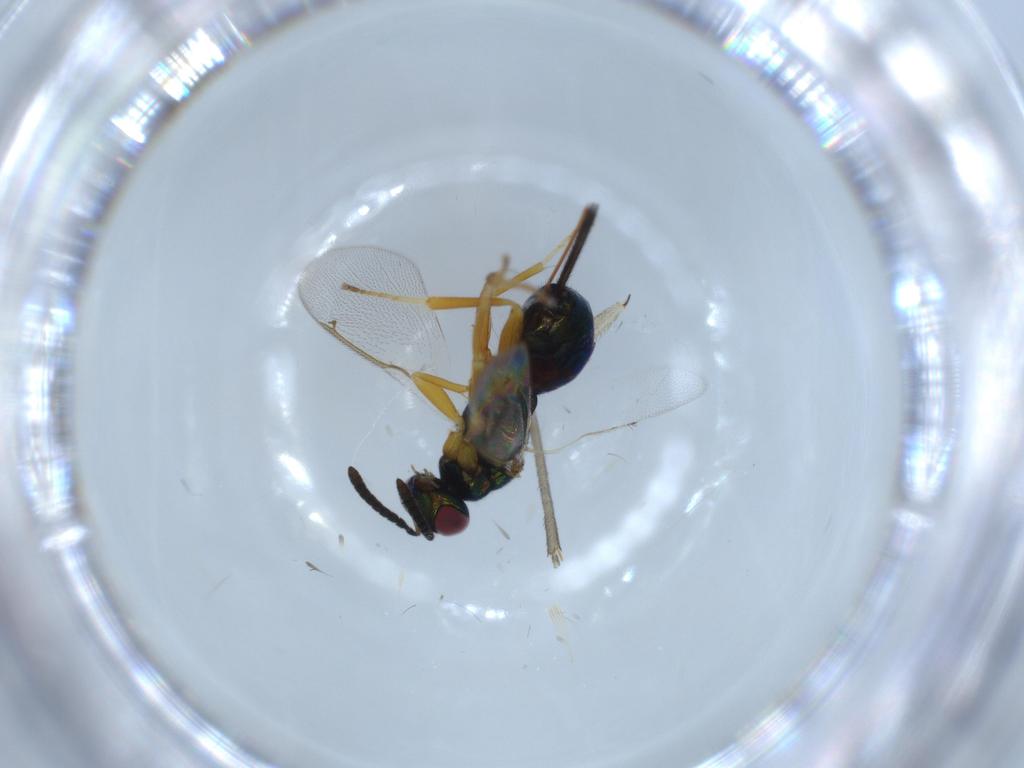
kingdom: Animalia
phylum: Arthropoda
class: Insecta
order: Hymenoptera
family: Torymidae
